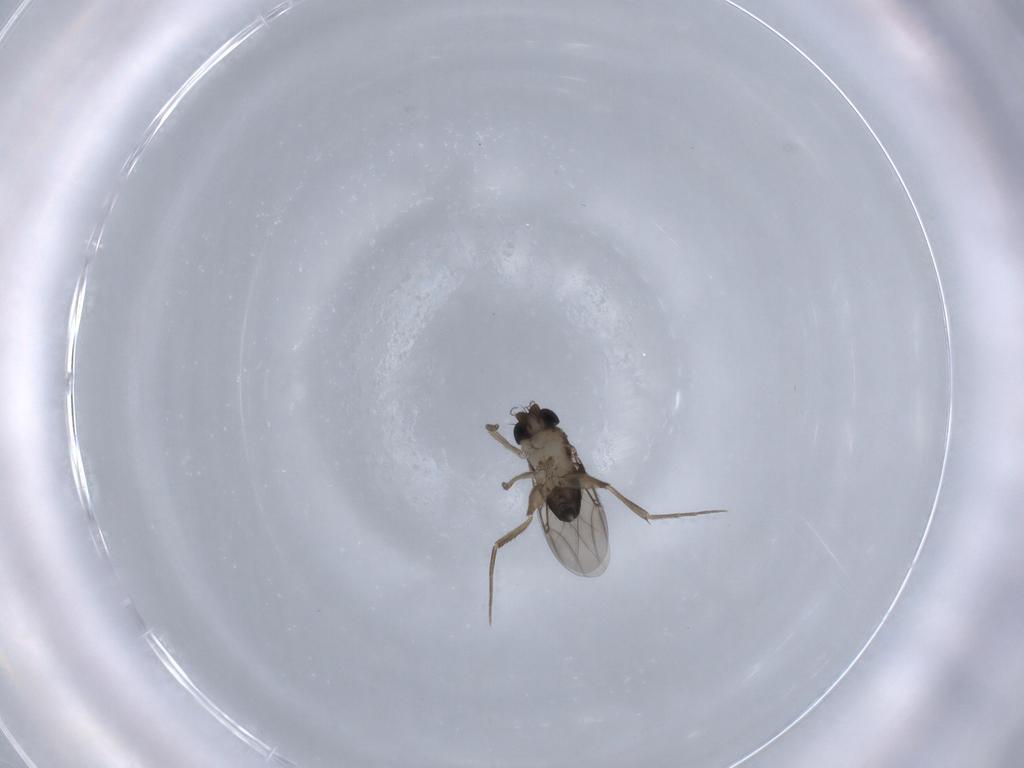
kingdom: Animalia
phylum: Arthropoda
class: Insecta
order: Diptera
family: Phoridae
